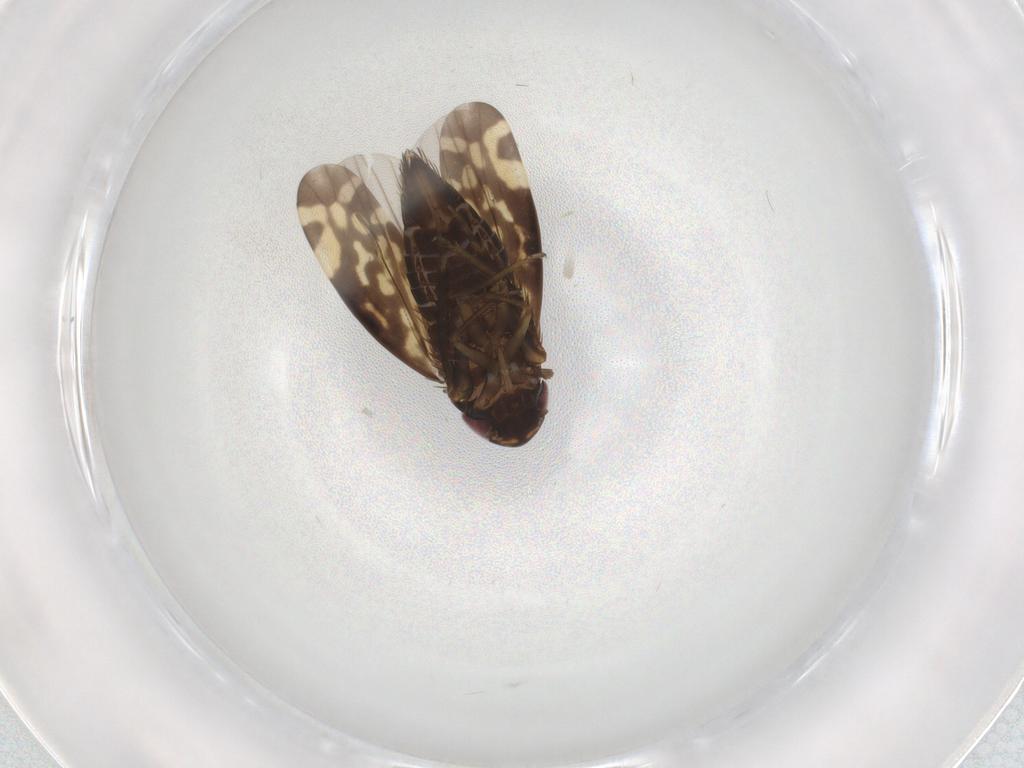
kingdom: Animalia
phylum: Arthropoda
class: Insecta
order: Hemiptera
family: Cicadellidae
